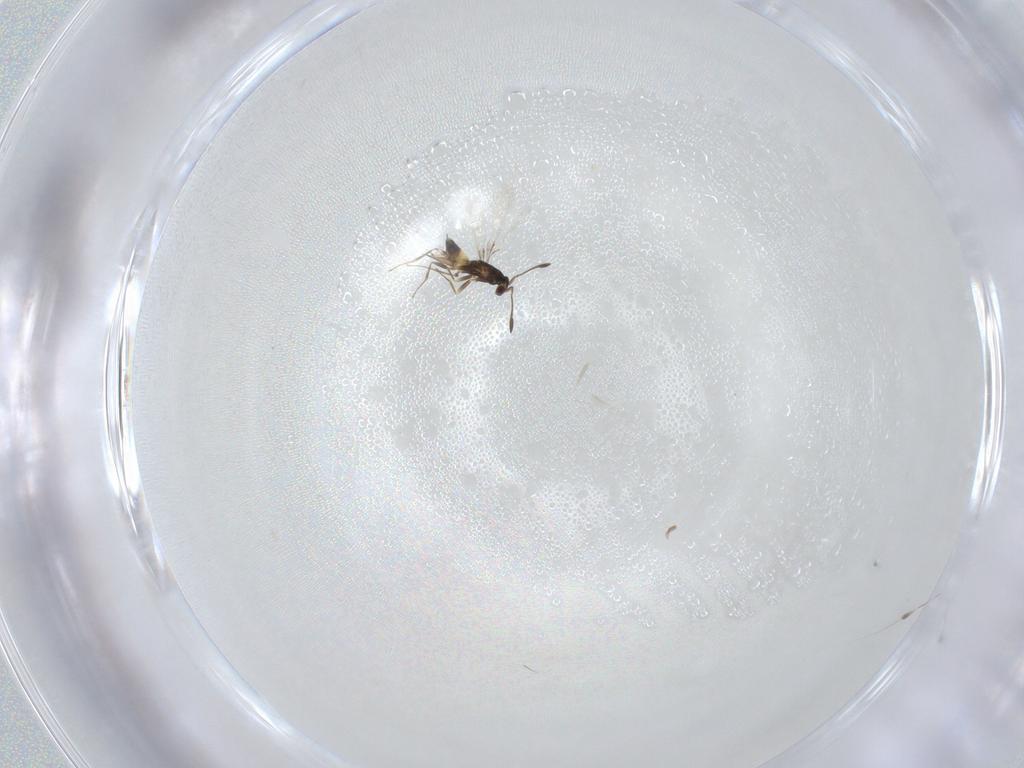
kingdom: Animalia
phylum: Arthropoda
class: Insecta
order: Hymenoptera
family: Mymaridae
